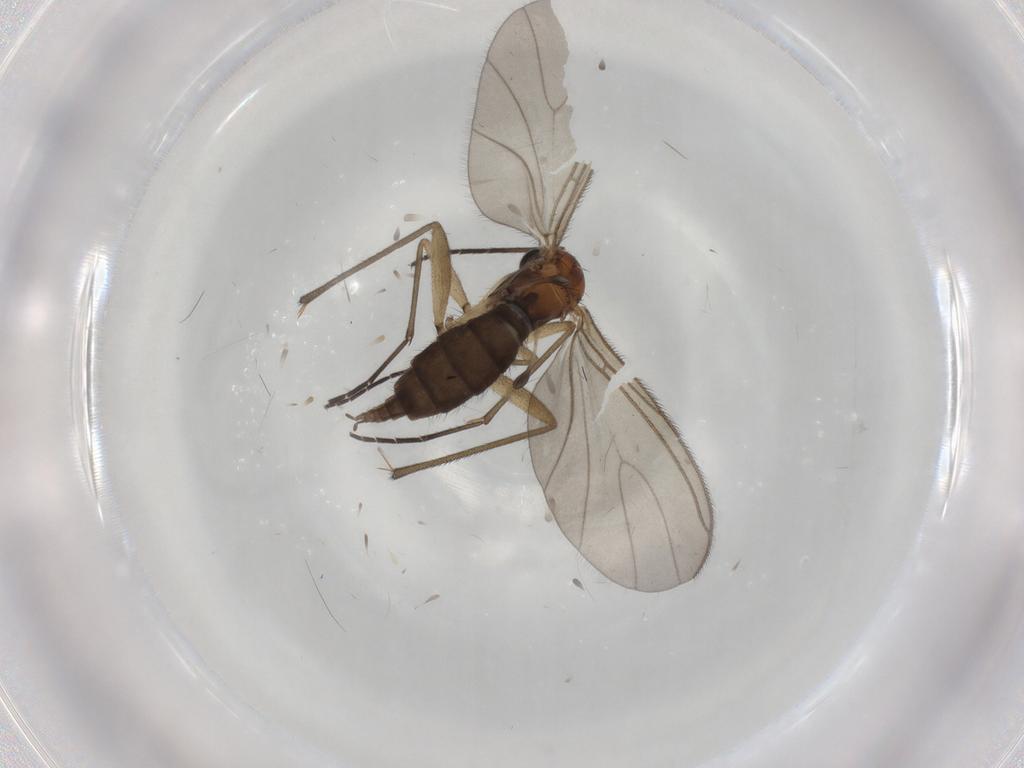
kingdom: Animalia
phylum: Arthropoda
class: Insecta
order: Diptera
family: Sciaridae
